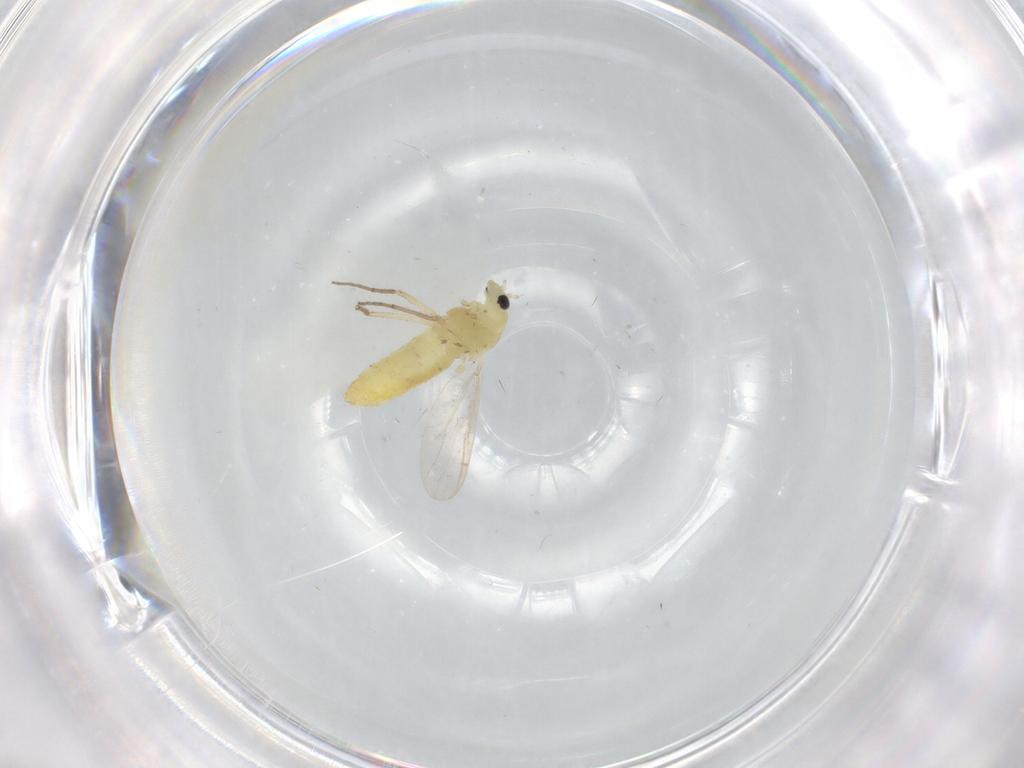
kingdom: Animalia
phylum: Arthropoda
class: Insecta
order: Diptera
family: Chironomidae
